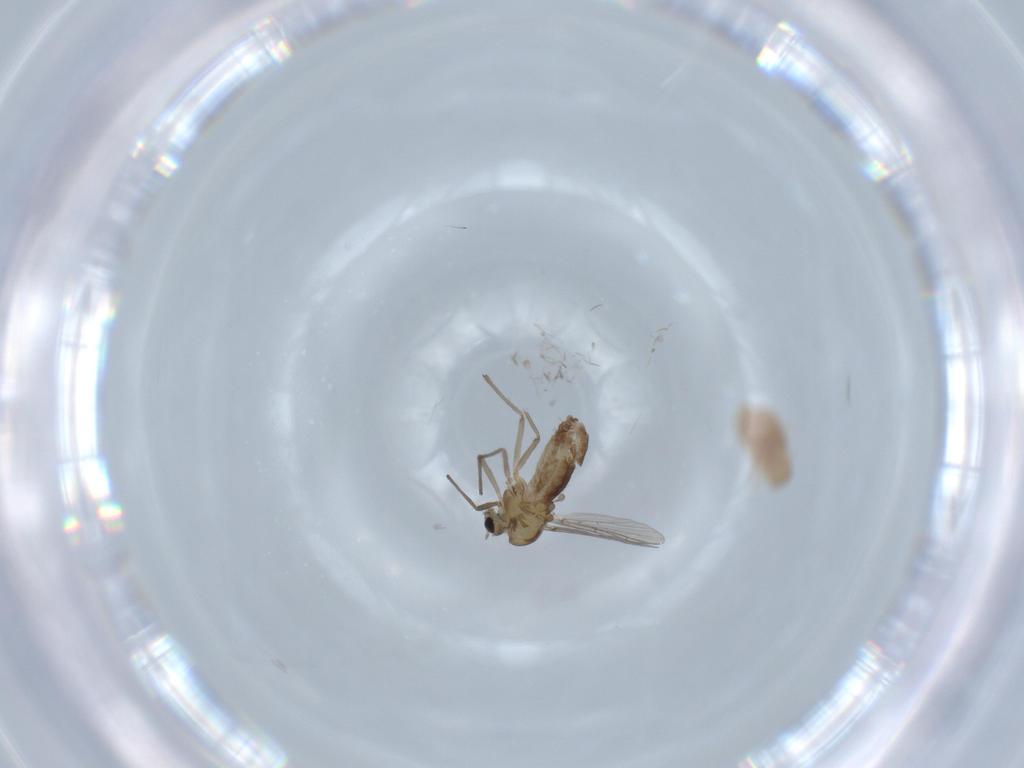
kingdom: Animalia
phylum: Arthropoda
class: Insecta
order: Diptera
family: Chironomidae
